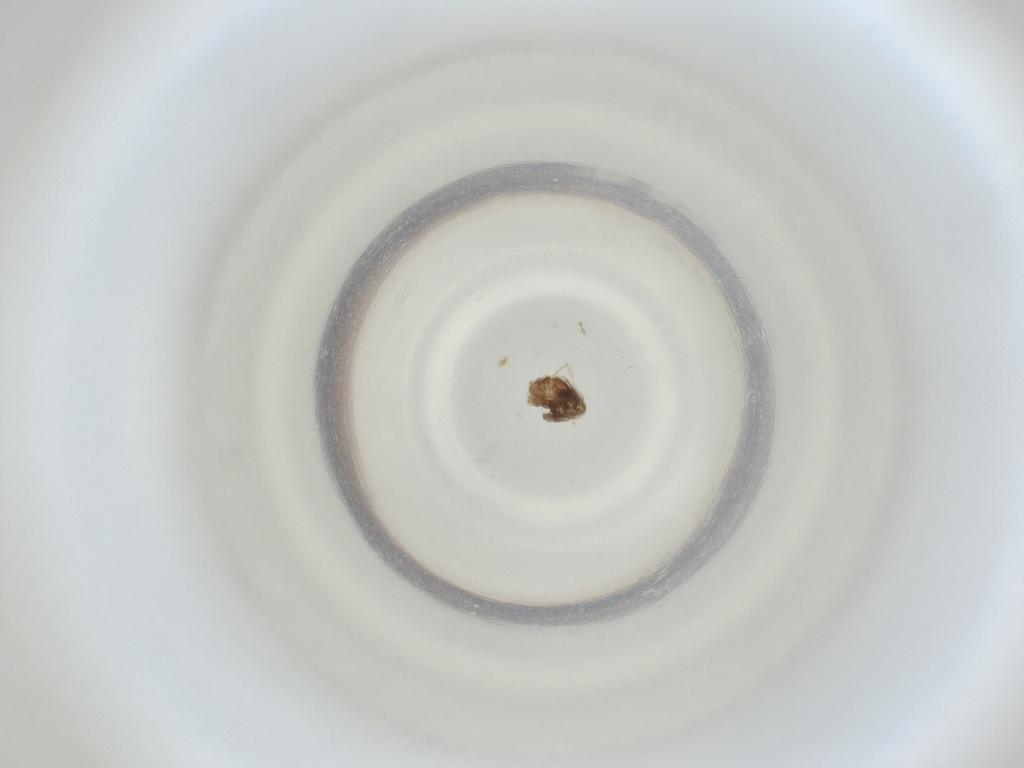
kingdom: Animalia
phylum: Arthropoda
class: Insecta
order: Diptera
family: Cecidomyiidae
